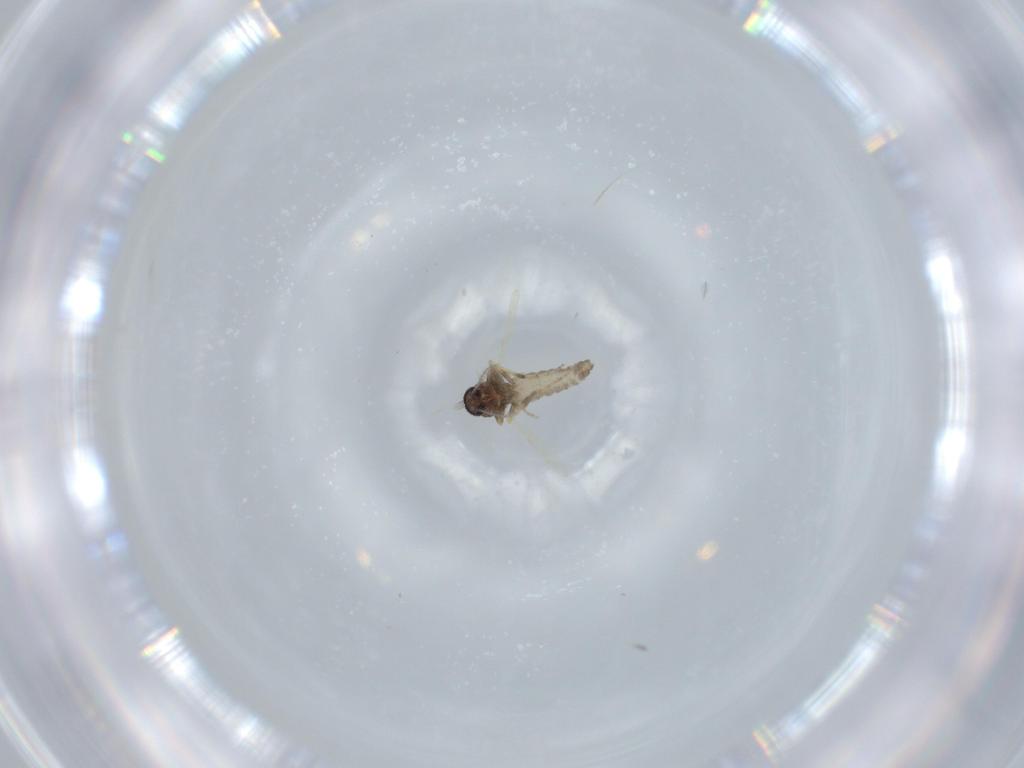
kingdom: Animalia
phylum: Arthropoda
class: Insecta
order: Diptera
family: Ceratopogonidae
